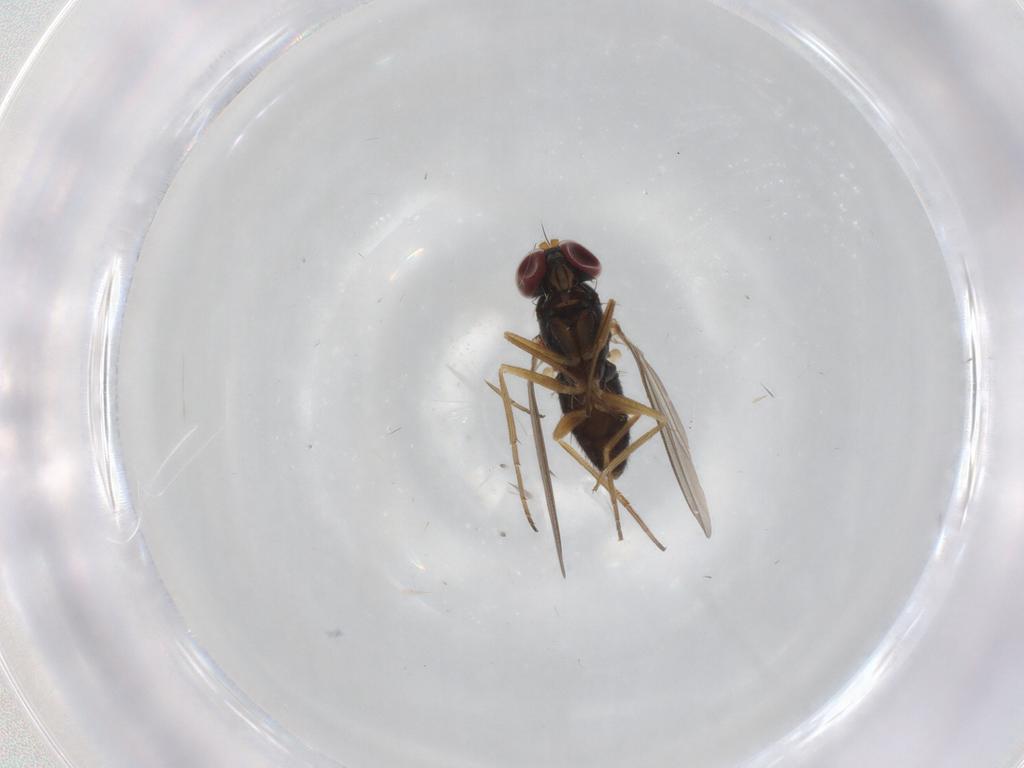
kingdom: Animalia
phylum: Arthropoda
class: Insecta
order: Diptera
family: Dolichopodidae
